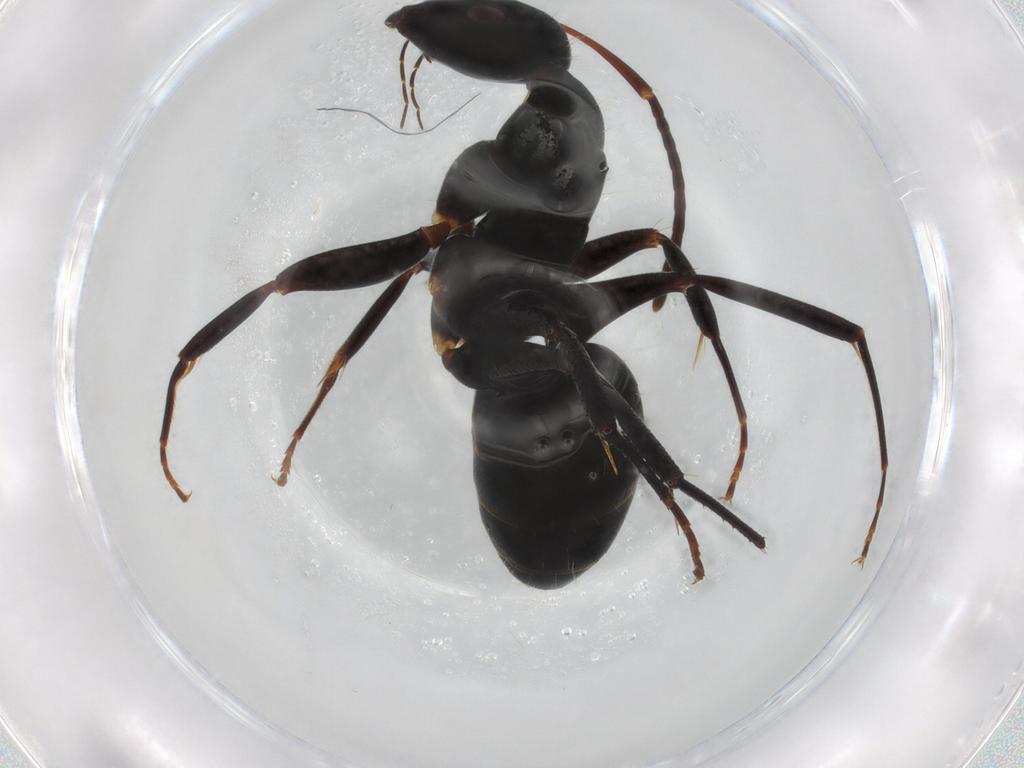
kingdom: Animalia
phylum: Arthropoda
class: Insecta
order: Hymenoptera
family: Formicidae
